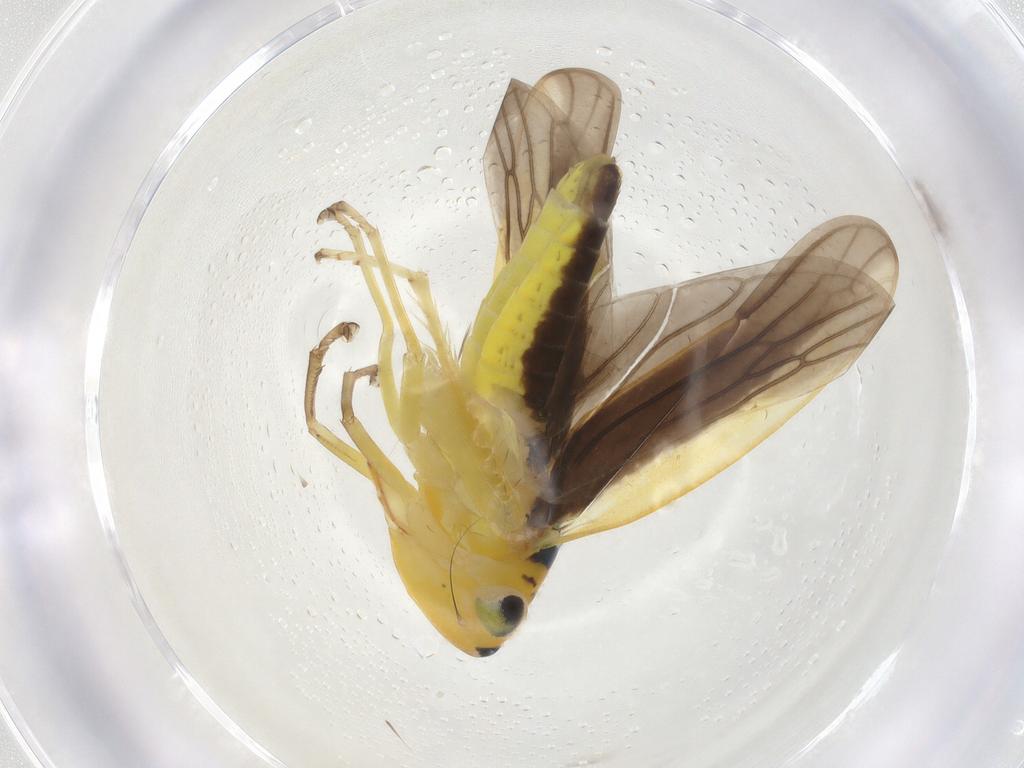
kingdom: Animalia
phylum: Arthropoda
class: Insecta
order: Hemiptera
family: Cicadellidae
